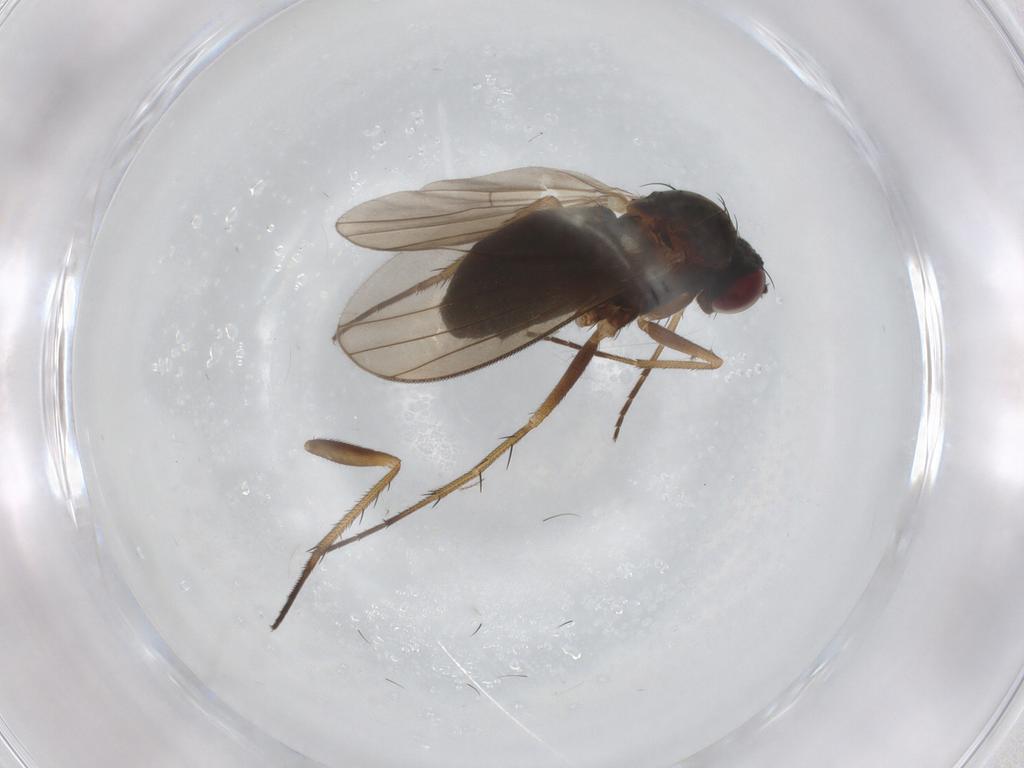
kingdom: Animalia
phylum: Arthropoda
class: Insecta
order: Diptera
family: Dolichopodidae
